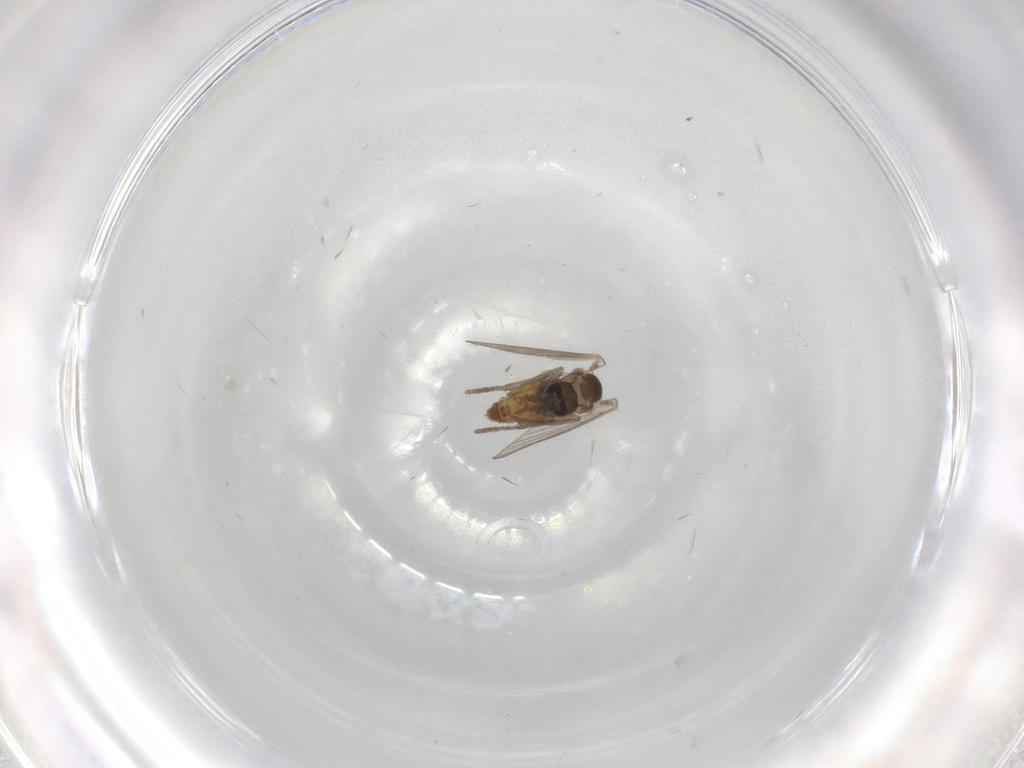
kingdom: Animalia
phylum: Arthropoda
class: Insecta
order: Diptera
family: Psychodidae
